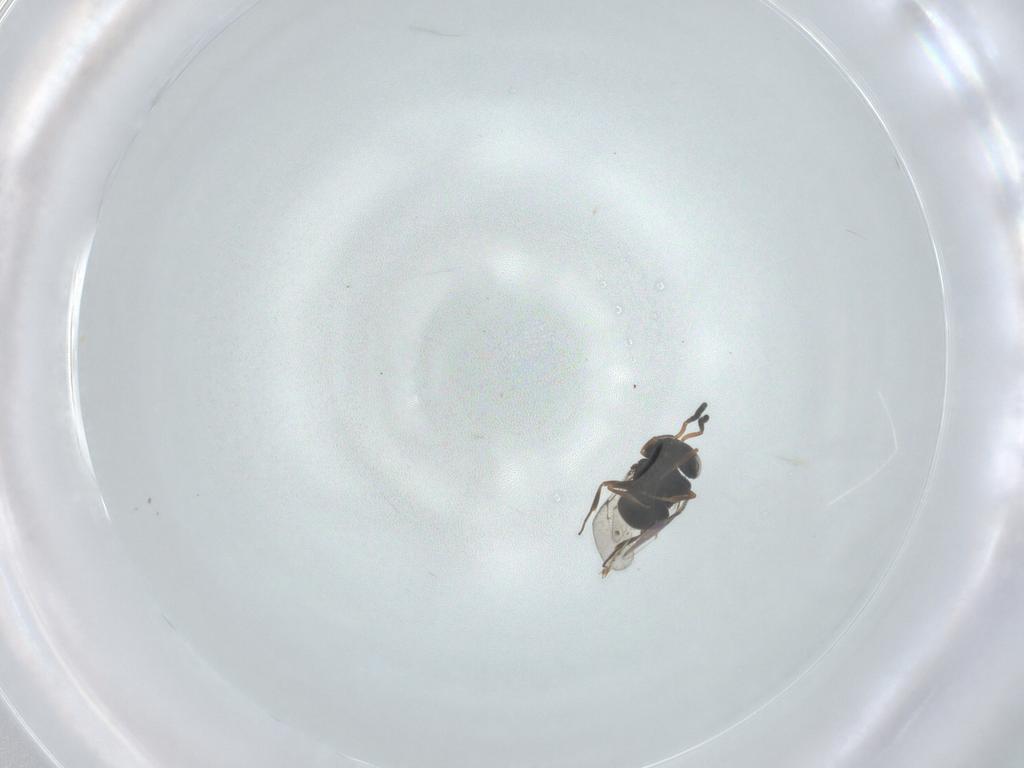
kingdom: Animalia
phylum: Arthropoda
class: Insecta
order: Hymenoptera
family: Scelionidae
